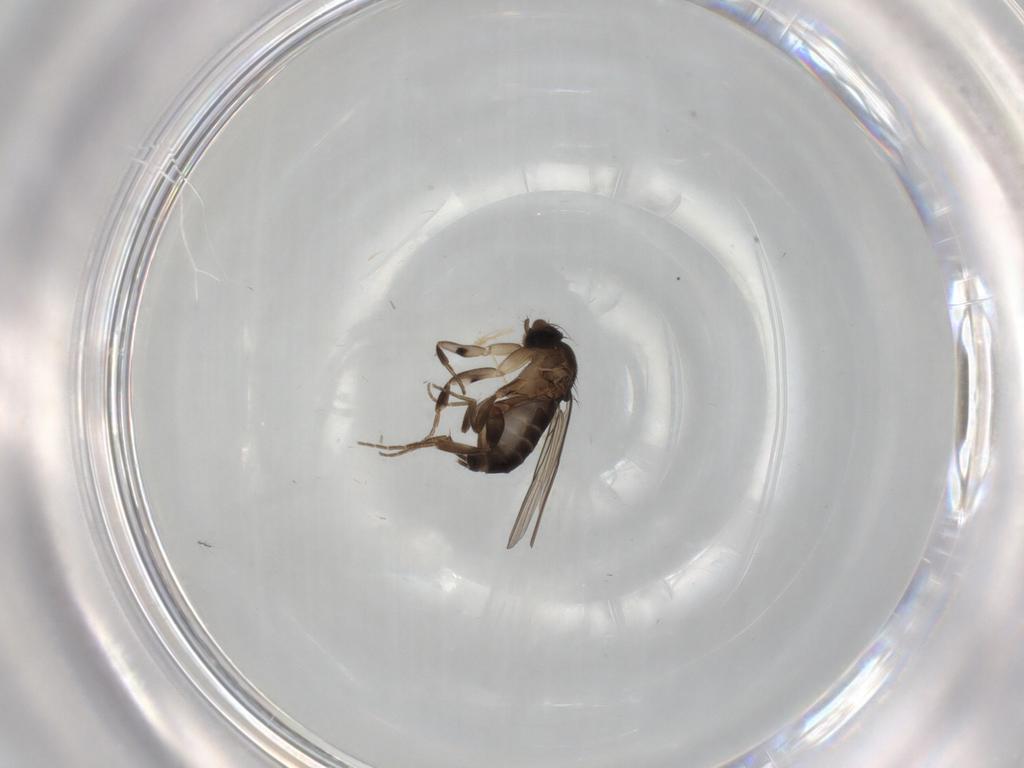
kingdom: Animalia
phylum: Arthropoda
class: Insecta
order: Diptera
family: Phoridae
